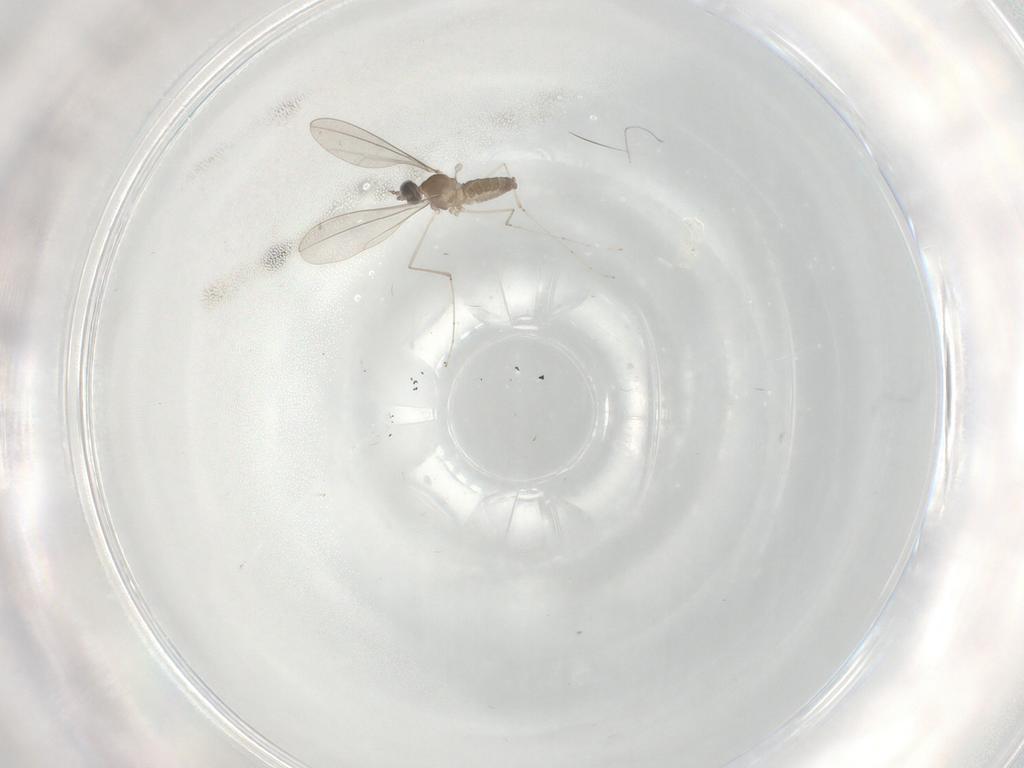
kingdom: Animalia
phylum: Arthropoda
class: Insecta
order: Diptera
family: Cecidomyiidae
